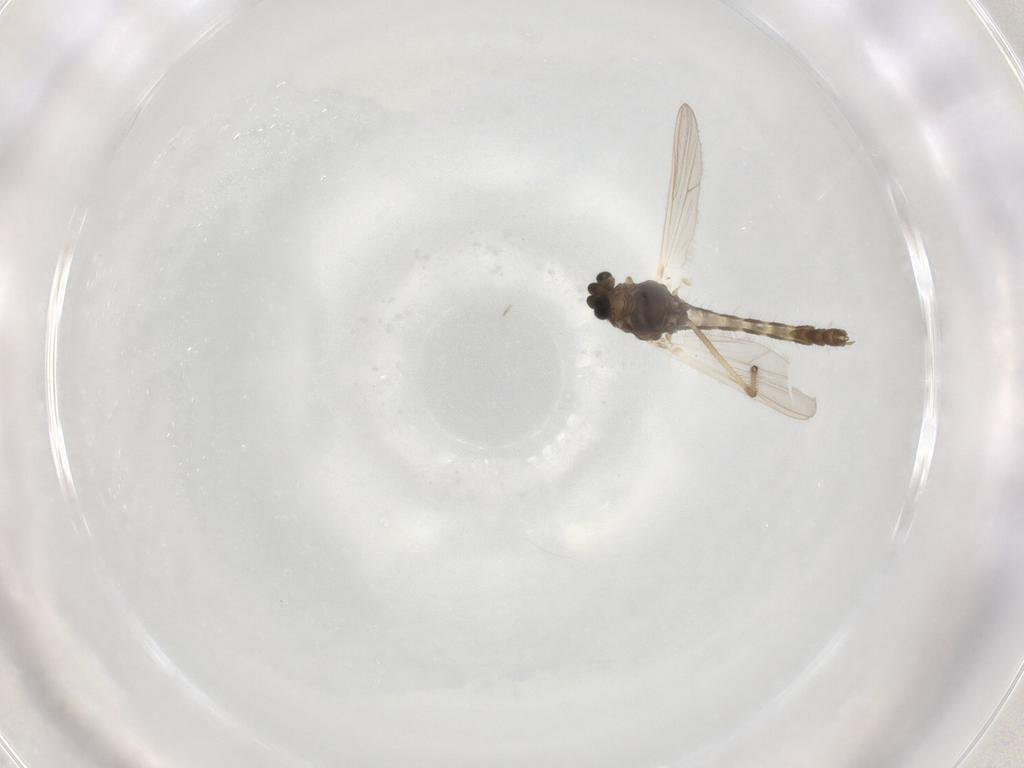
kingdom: Animalia
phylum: Arthropoda
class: Insecta
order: Diptera
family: Chironomidae
